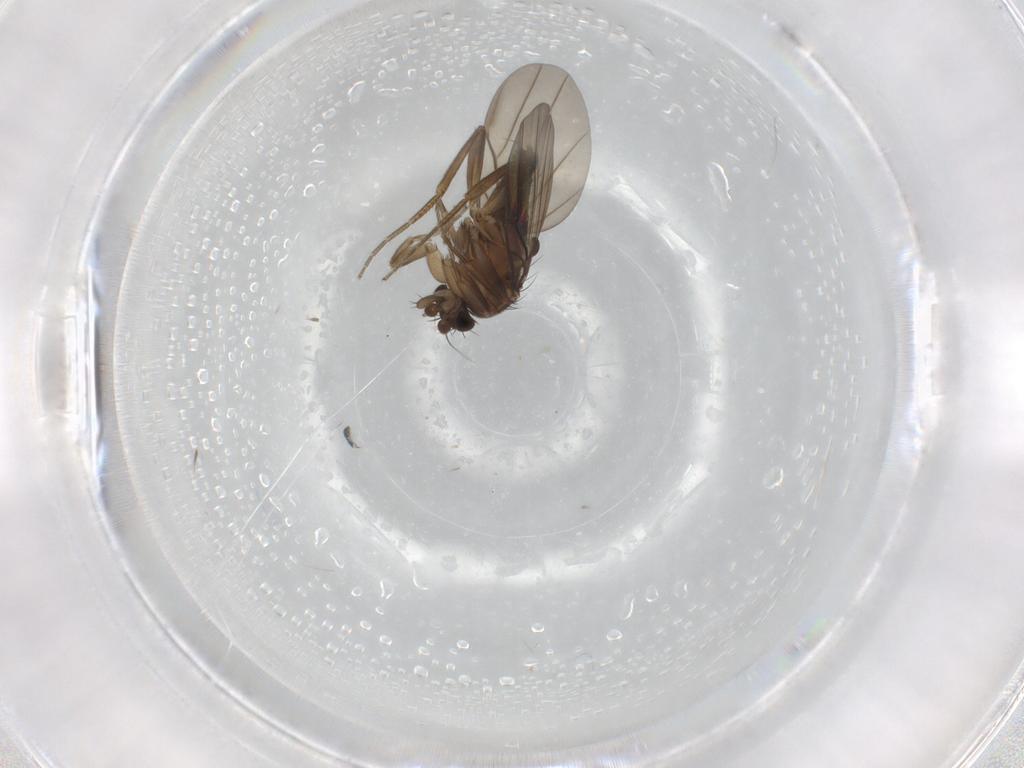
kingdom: Animalia
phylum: Arthropoda
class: Insecta
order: Diptera
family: Phoridae
